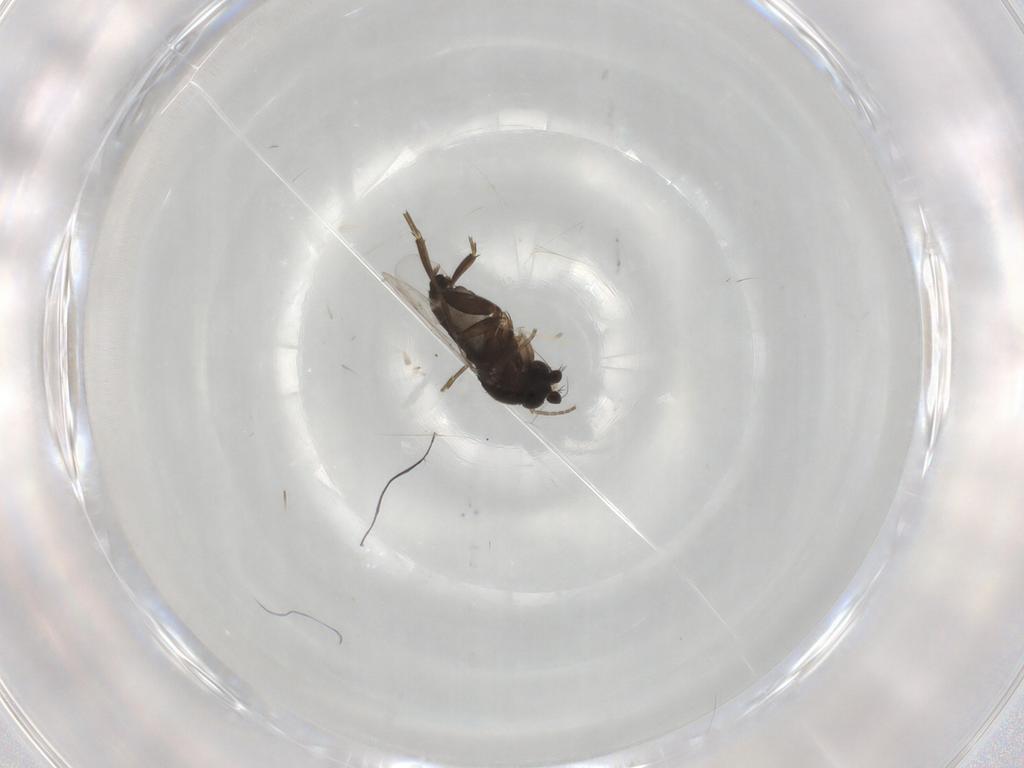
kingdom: Animalia
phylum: Arthropoda
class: Insecta
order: Diptera
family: Phoridae
